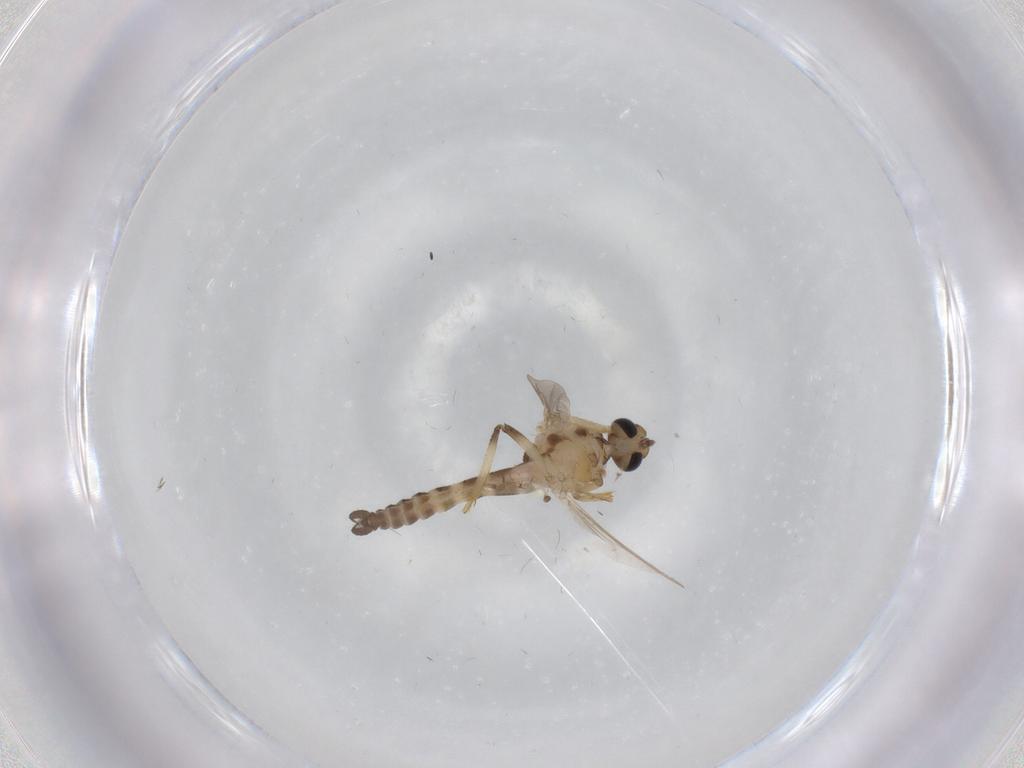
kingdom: Animalia
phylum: Arthropoda
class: Insecta
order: Diptera
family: Ceratopogonidae
